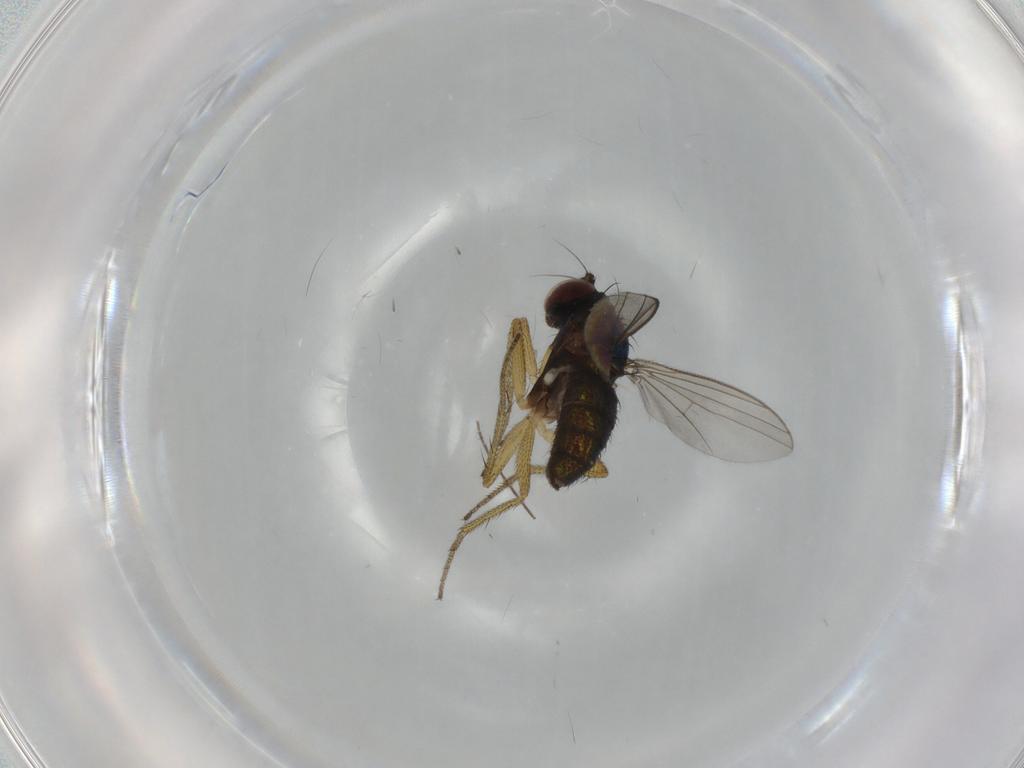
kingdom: Animalia
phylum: Arthropoda
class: Insecta
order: Diptera
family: Dolichopodidae
